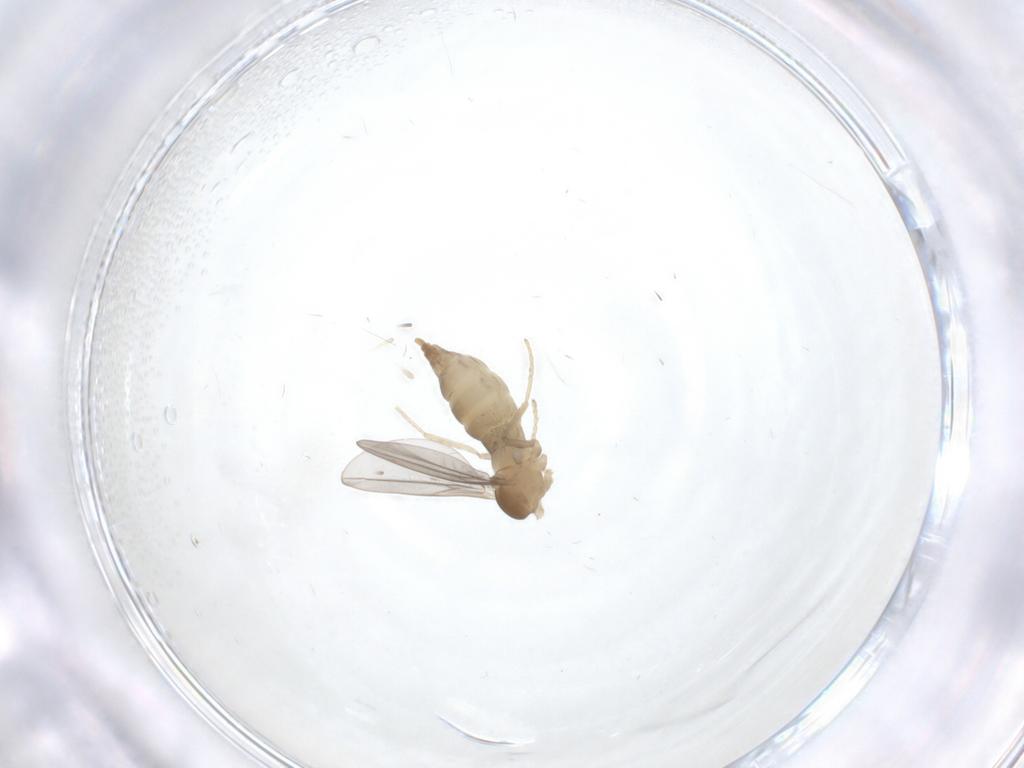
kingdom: Animalia
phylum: Arthropoda
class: Insecta
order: Diptera
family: Cecidomyiidae
